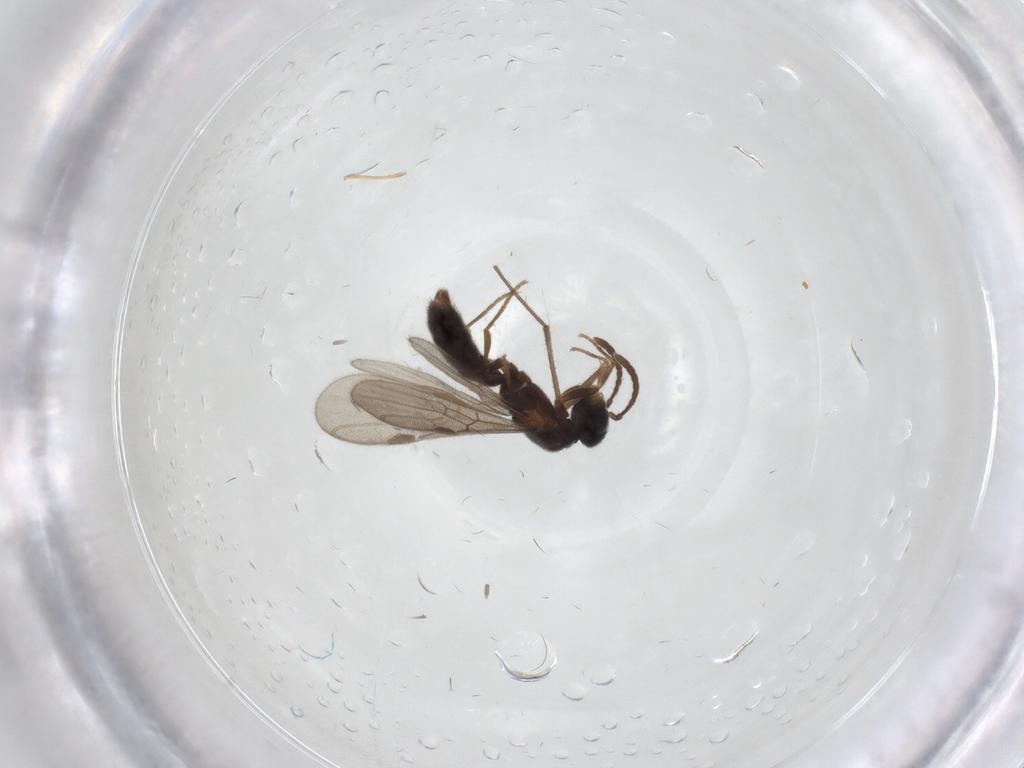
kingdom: Animalia
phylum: Arthropoda
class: Insecta
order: Hymenoptera
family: Formicidae
